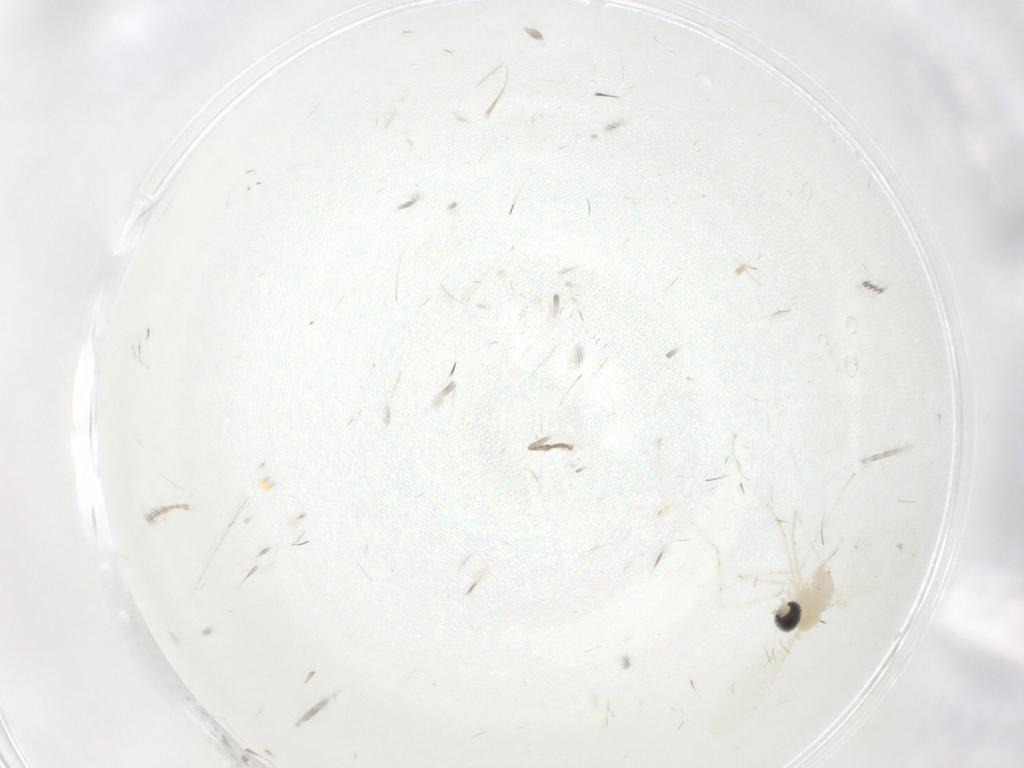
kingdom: Animalia
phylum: Arthropoda
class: Insecta
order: Diptera
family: Cecidomyiidae
